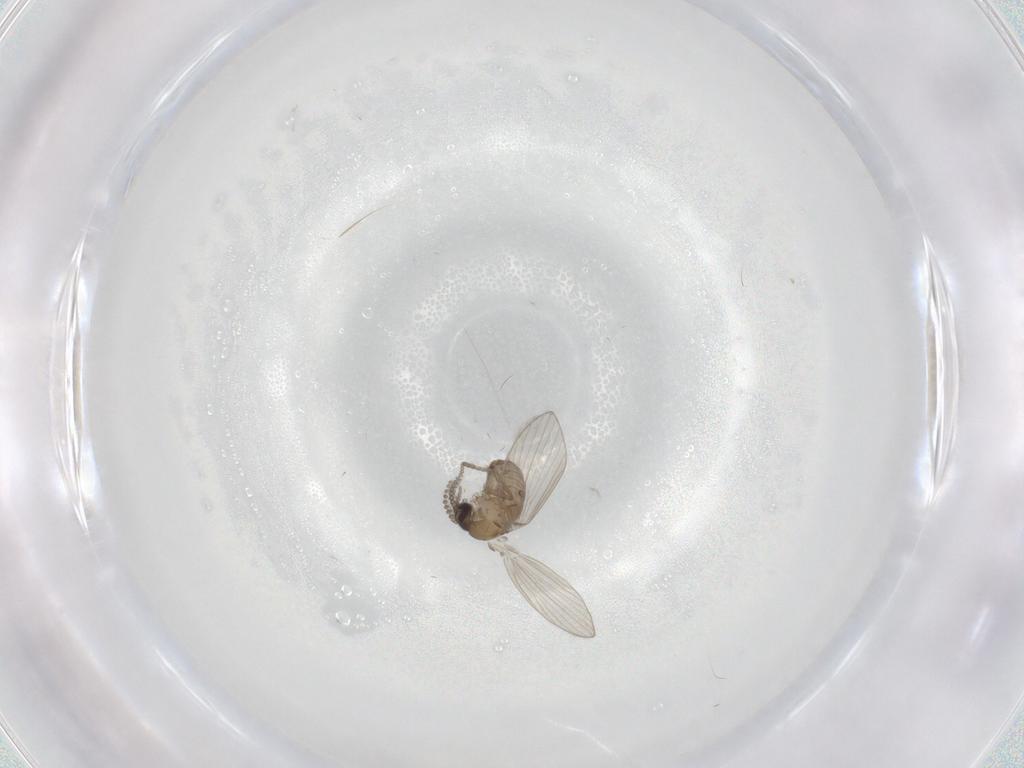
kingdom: Animalia
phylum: Arthropoda
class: Insecta
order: Diptera
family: Psychodidae
